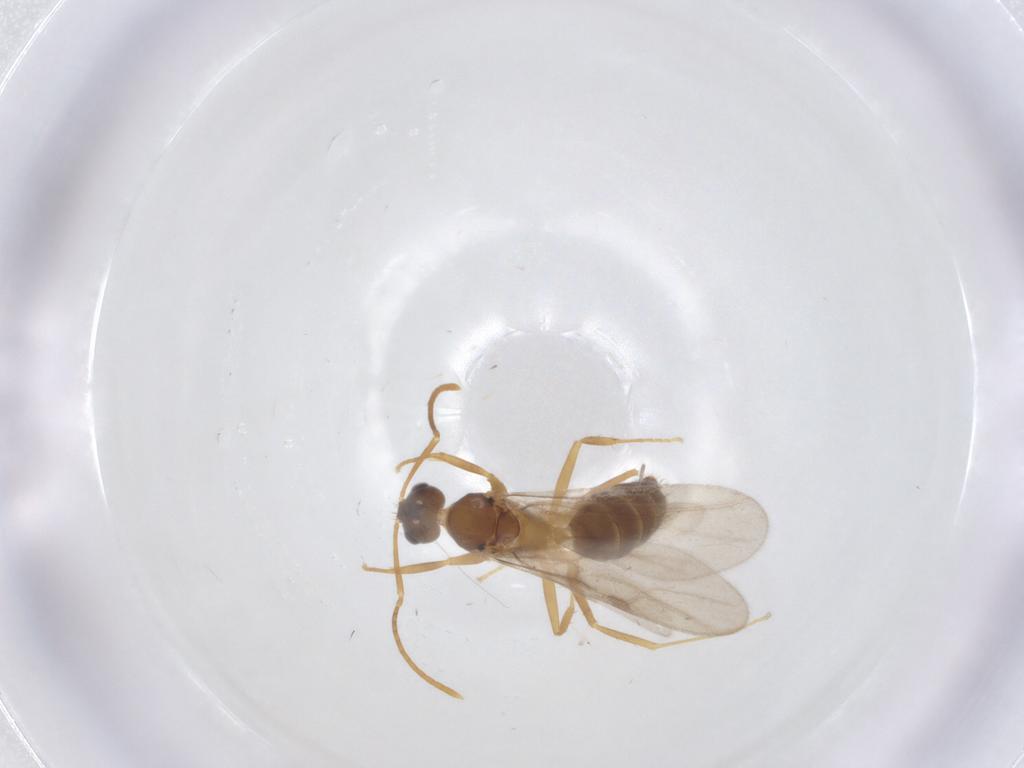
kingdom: Animalia
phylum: Arthropoda
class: Insecta
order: Hymenoptera
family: Formicidae
